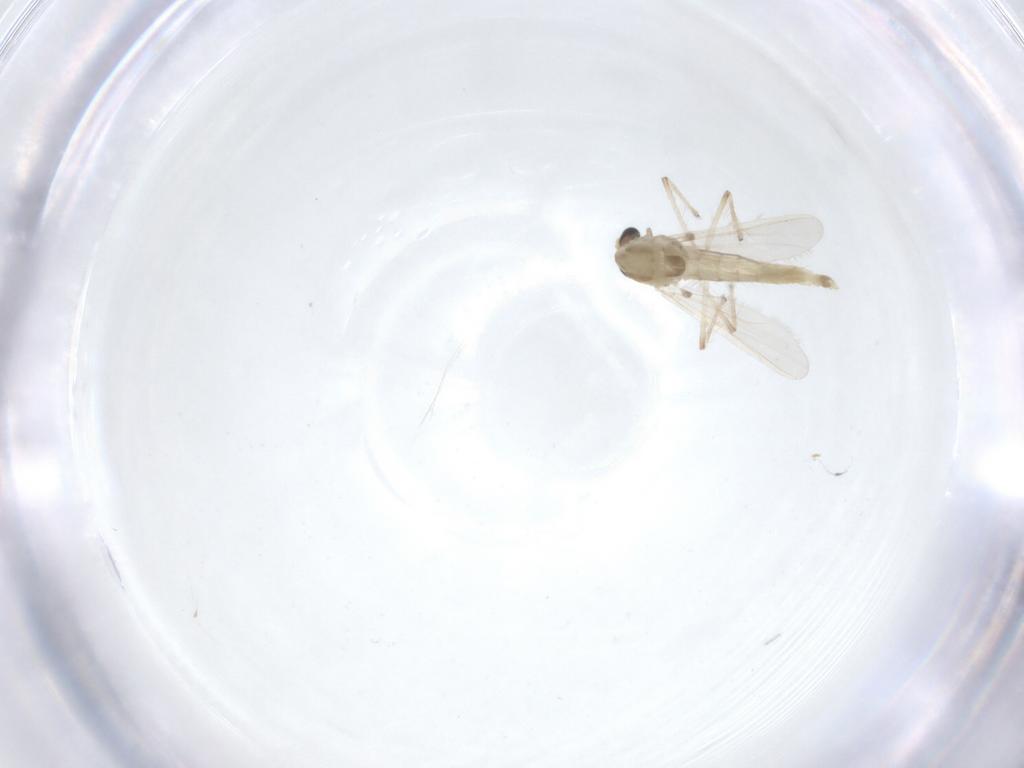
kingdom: Animalia
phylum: Arthropoda
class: Insecta
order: Diptera
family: Chironomidae
